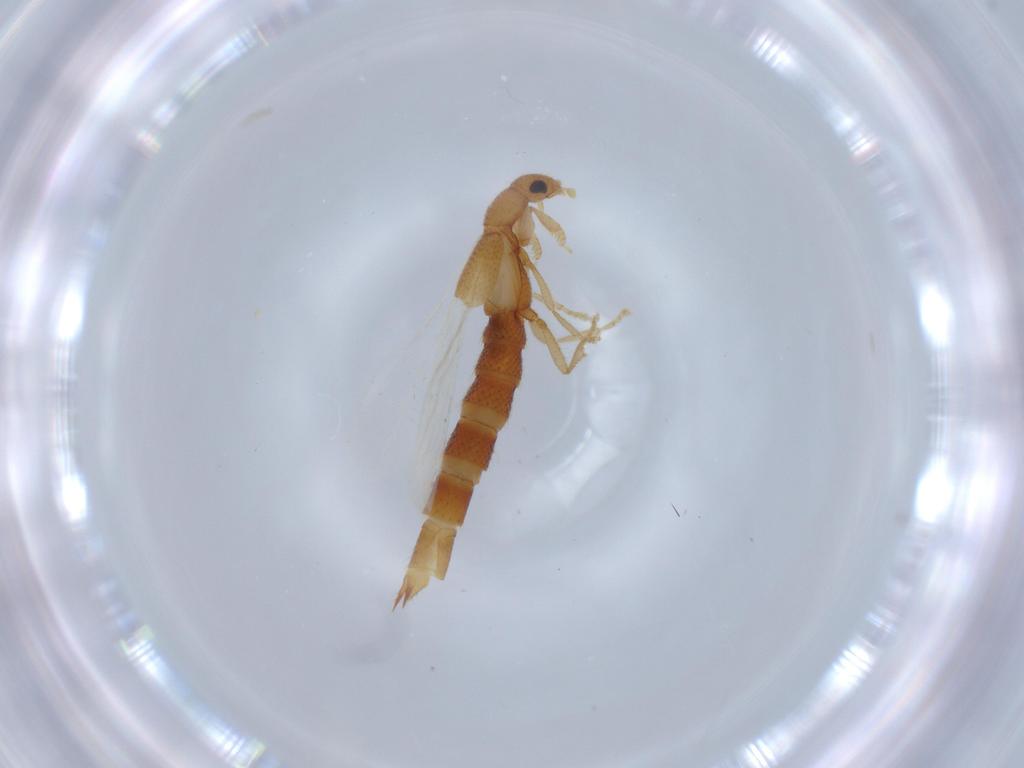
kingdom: Animalia
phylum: Arthropoda
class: Insecta
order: Coleoptera
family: Staphylinidae
